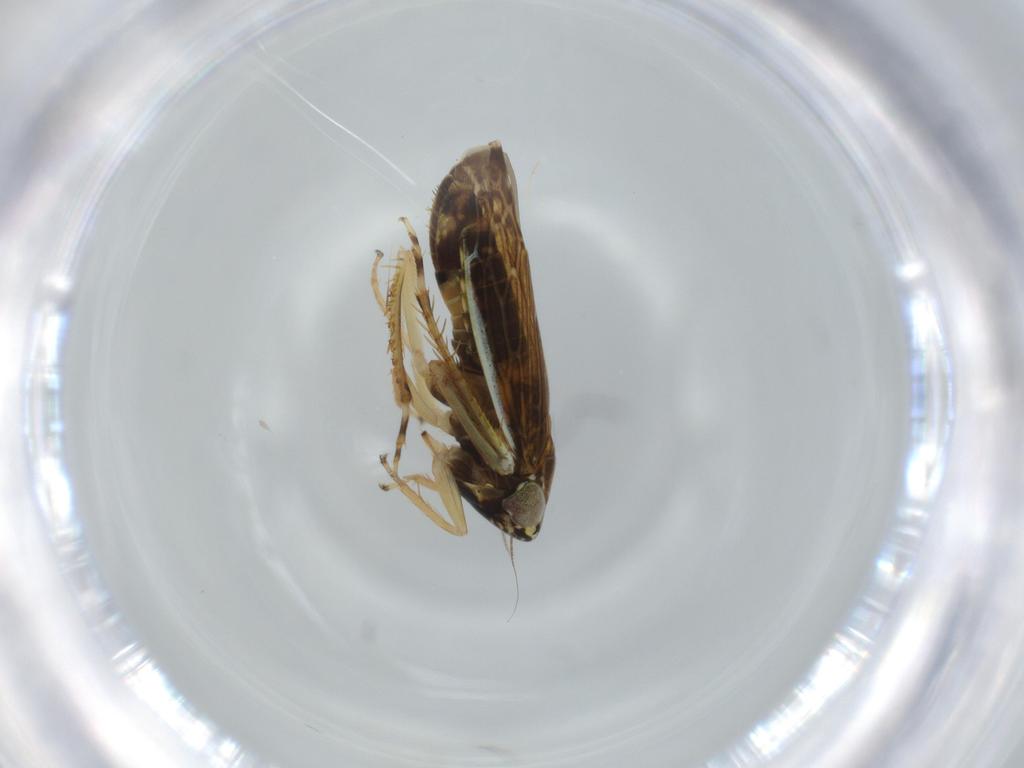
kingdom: Animalia
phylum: Arthropoda
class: Insecta
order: Hemiptera
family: Cicadellidae
